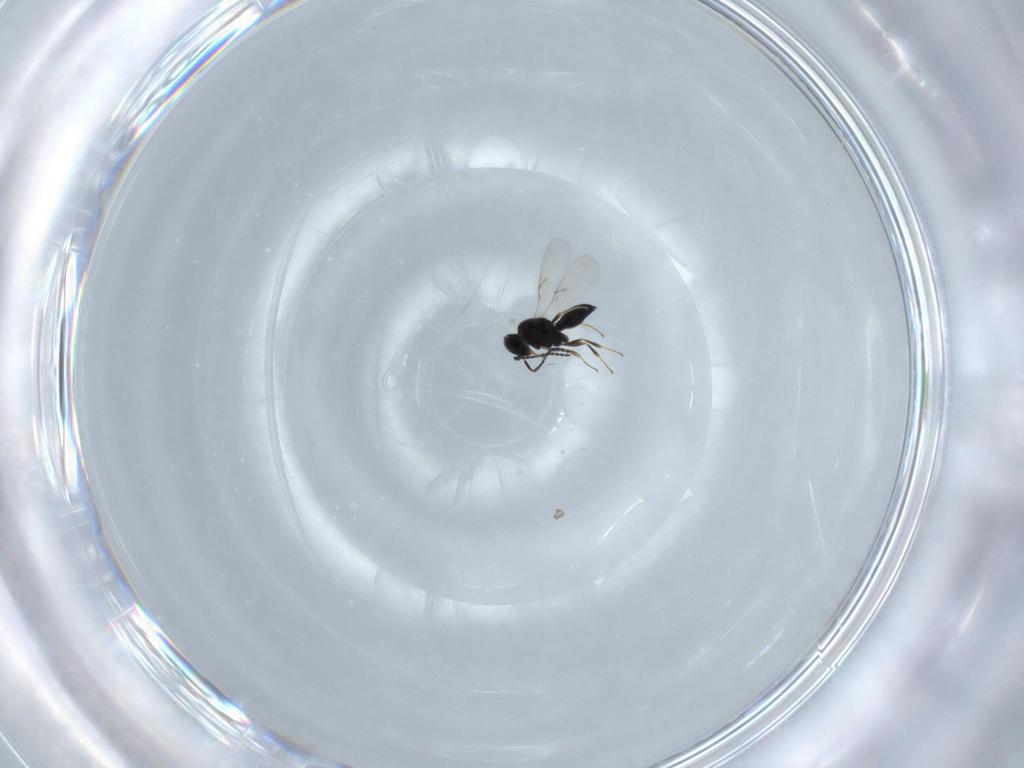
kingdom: Animalia
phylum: Arthropoda
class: Insecta
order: Hymenoptera
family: Scelionidae
